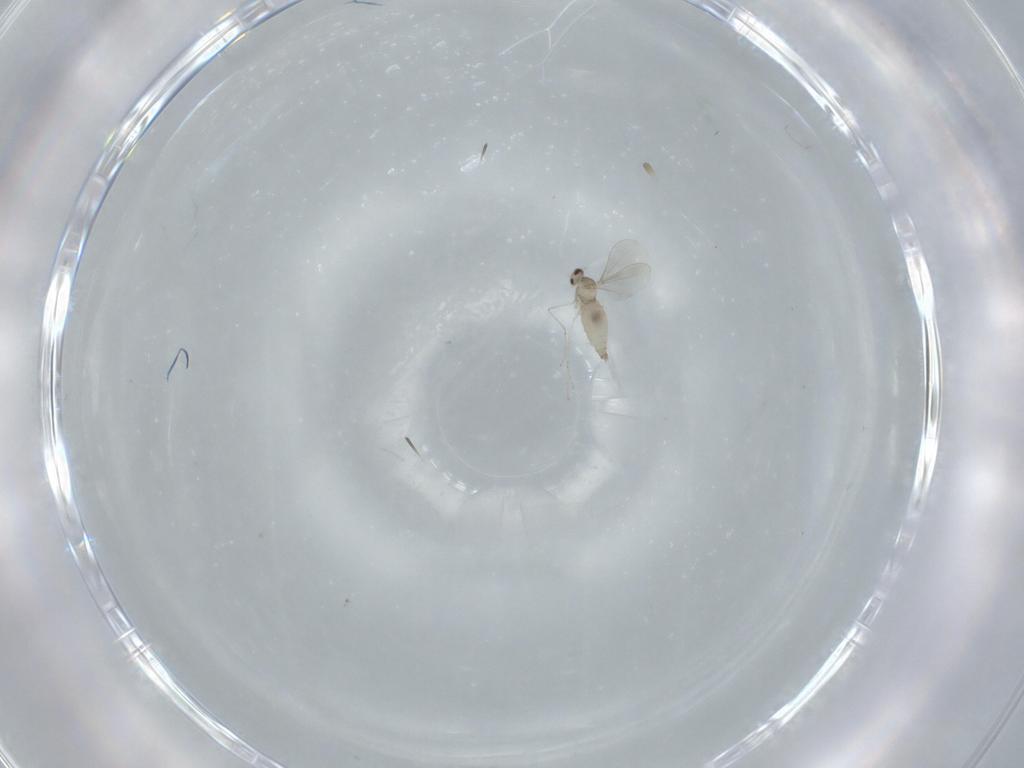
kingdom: Animalia
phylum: Arthropoda
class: Insecta
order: Diptera
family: Cecidomyiidae
